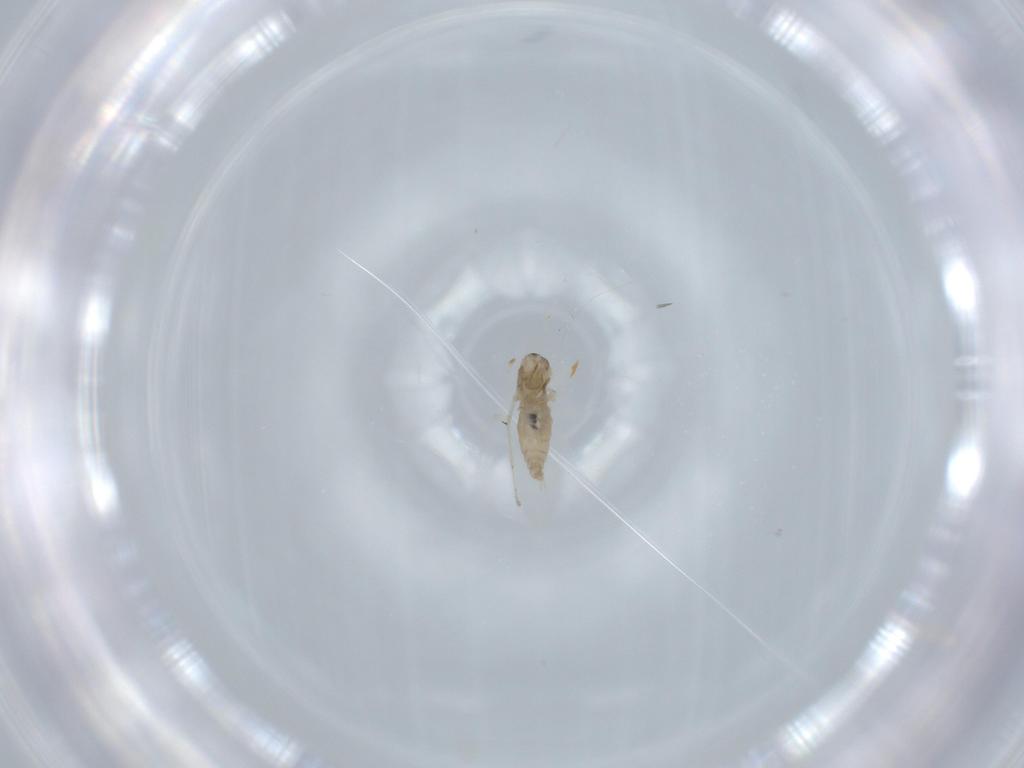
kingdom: Animalia
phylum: Arthropoda
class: Insecta
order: Diptera
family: Cecidomyiidae
